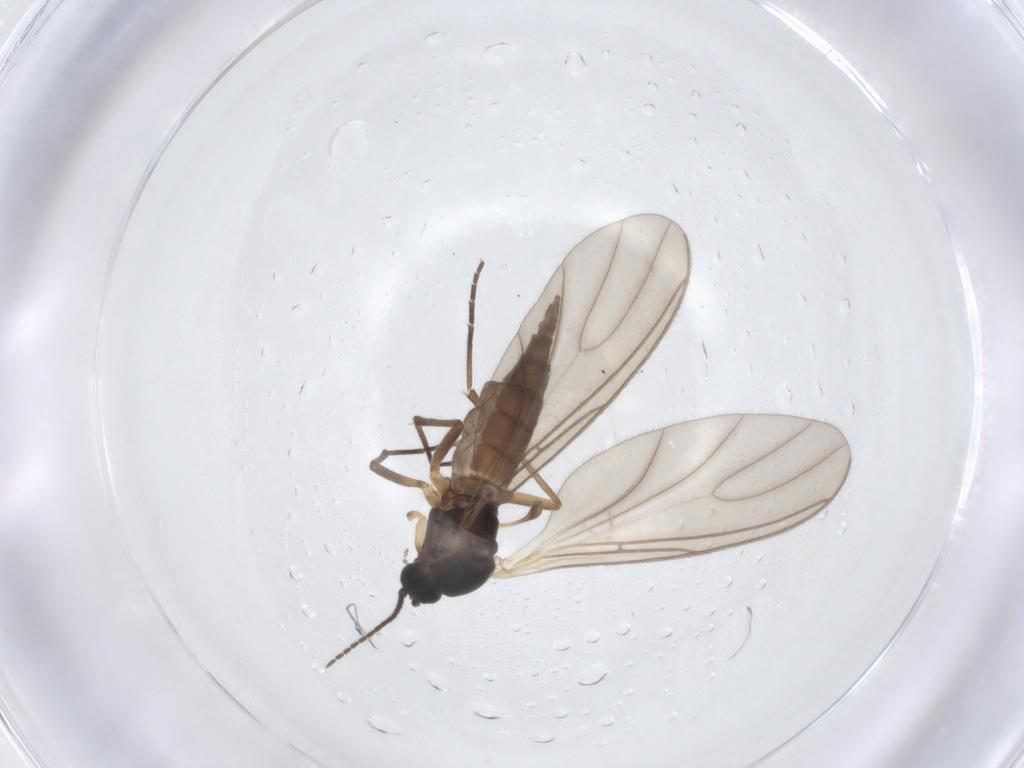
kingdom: Animalia
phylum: Arthropoda
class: Insecta
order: Diptera
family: Sciaridae
